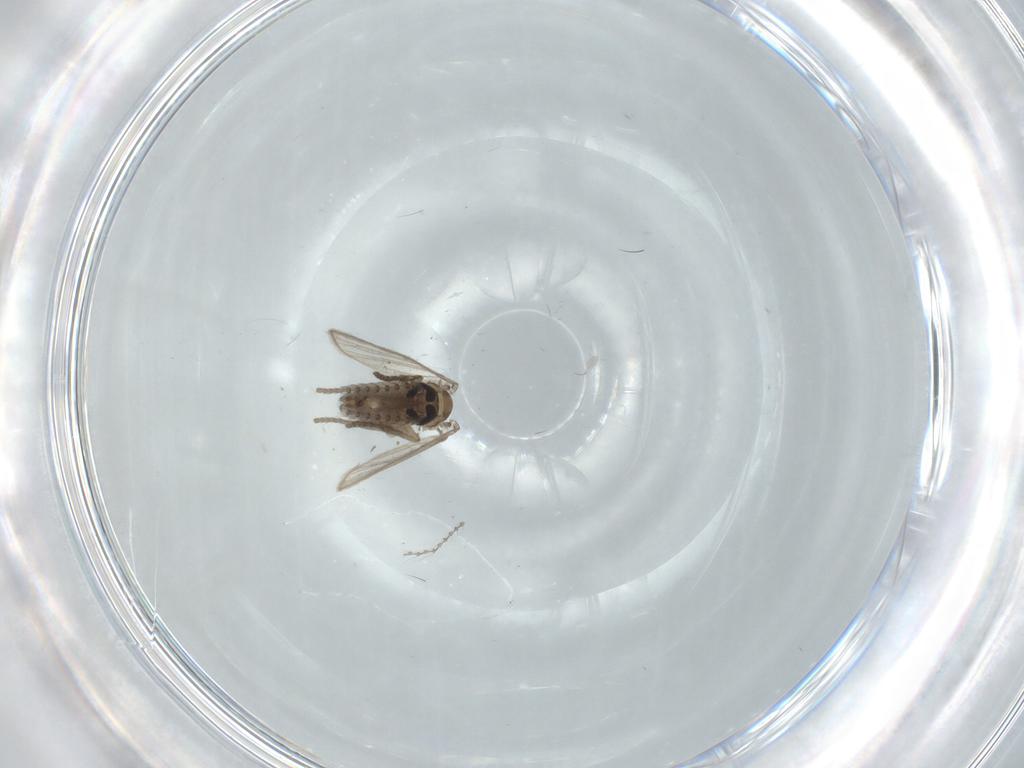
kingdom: Animalia
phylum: Arthropoda
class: Insecta
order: Diptera
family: Psychodidae
